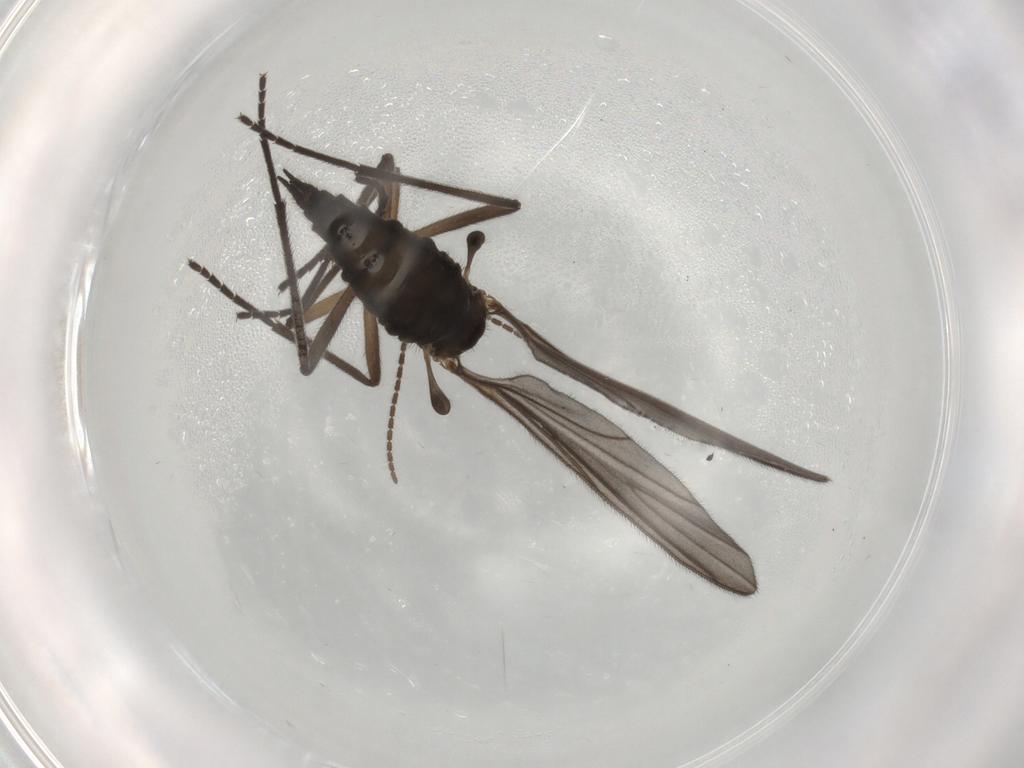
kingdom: Animalia
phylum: Arthropoda
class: Insecta
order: Diptera
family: Sciaridae
